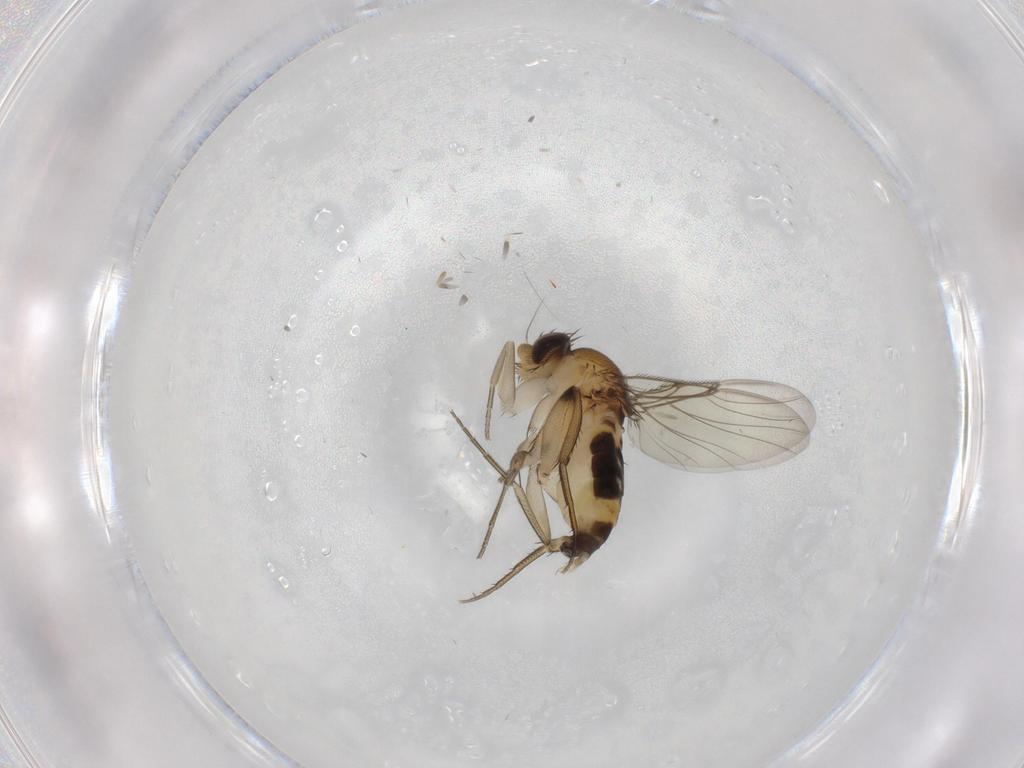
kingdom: Animalia
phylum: Arthropoda
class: Insecta
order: Diptera
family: Phoridae
